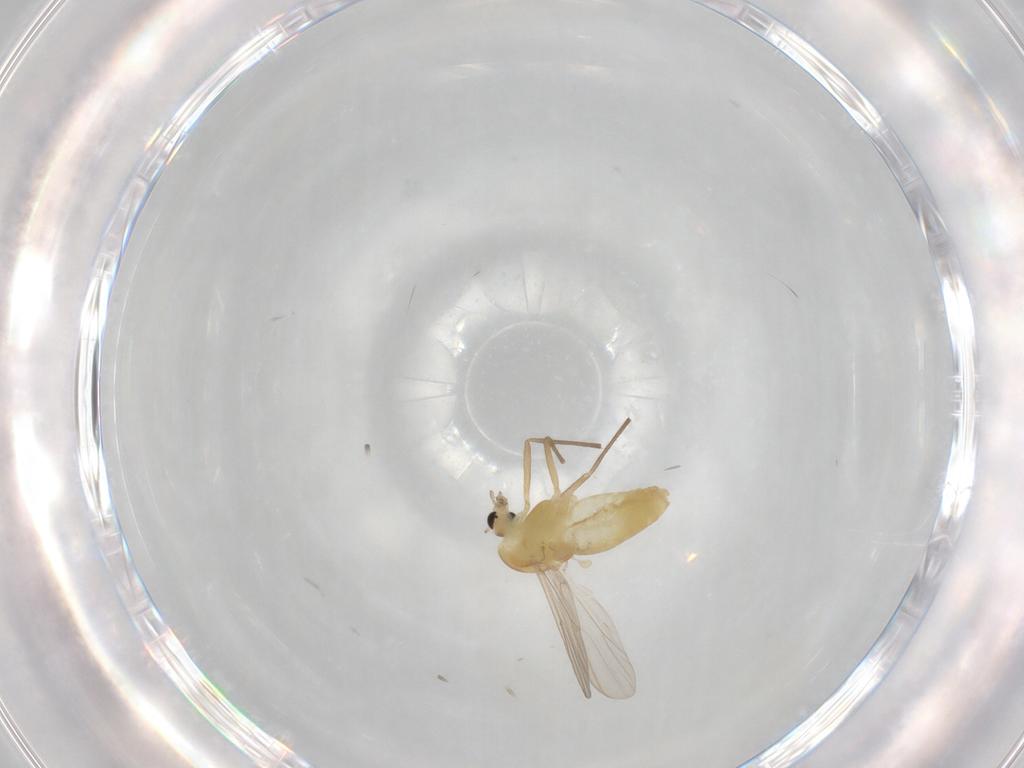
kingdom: Animalia
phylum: Arthropoda
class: Insecta
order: Diptera
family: Chironomidae
